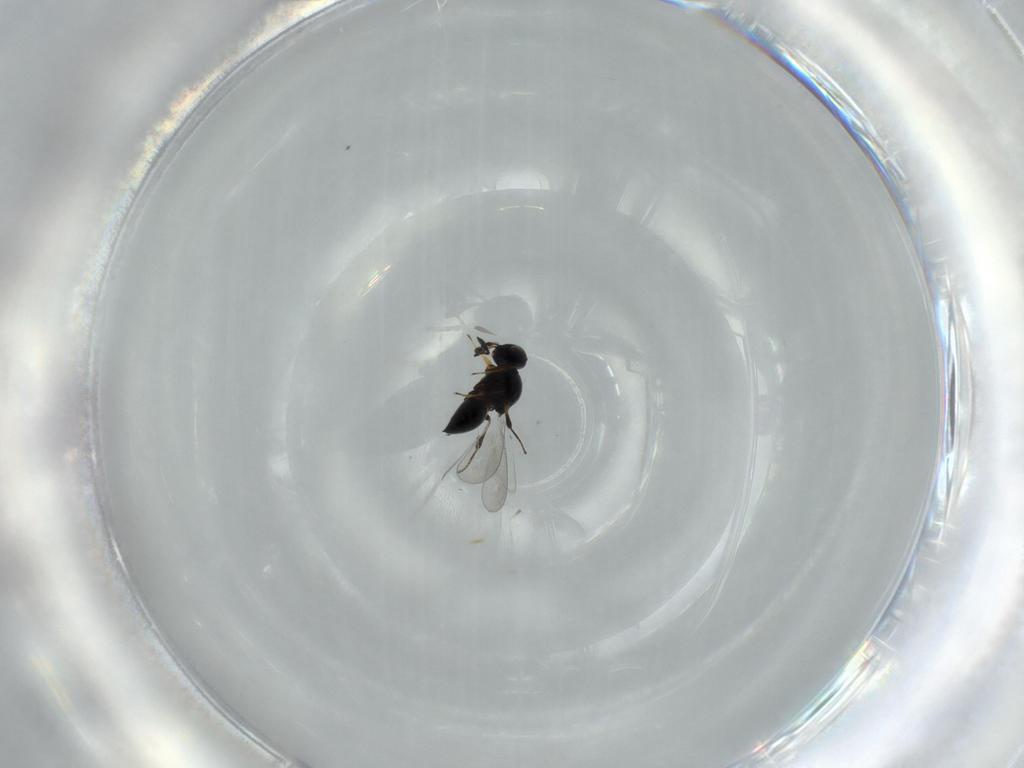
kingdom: Animalia
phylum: Arthropoda
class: Insecta
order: Hymenoptera
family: Platygastridae
